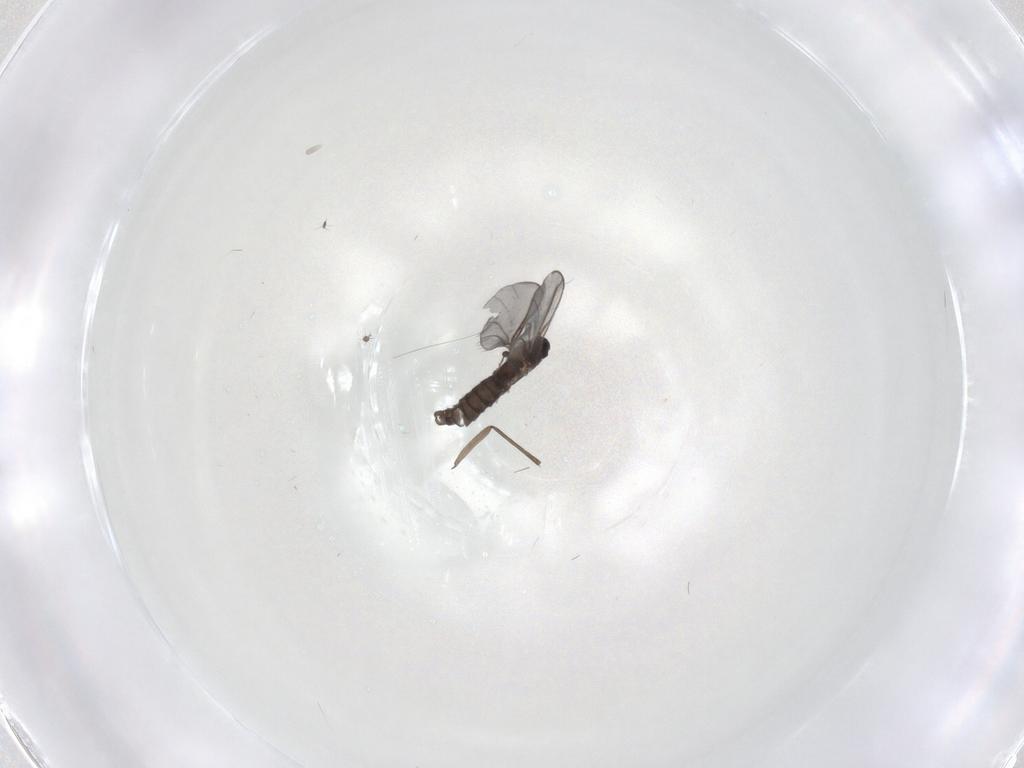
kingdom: Animalia
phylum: Arthropoda
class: Insecta
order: Diptera
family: Sciaridae
